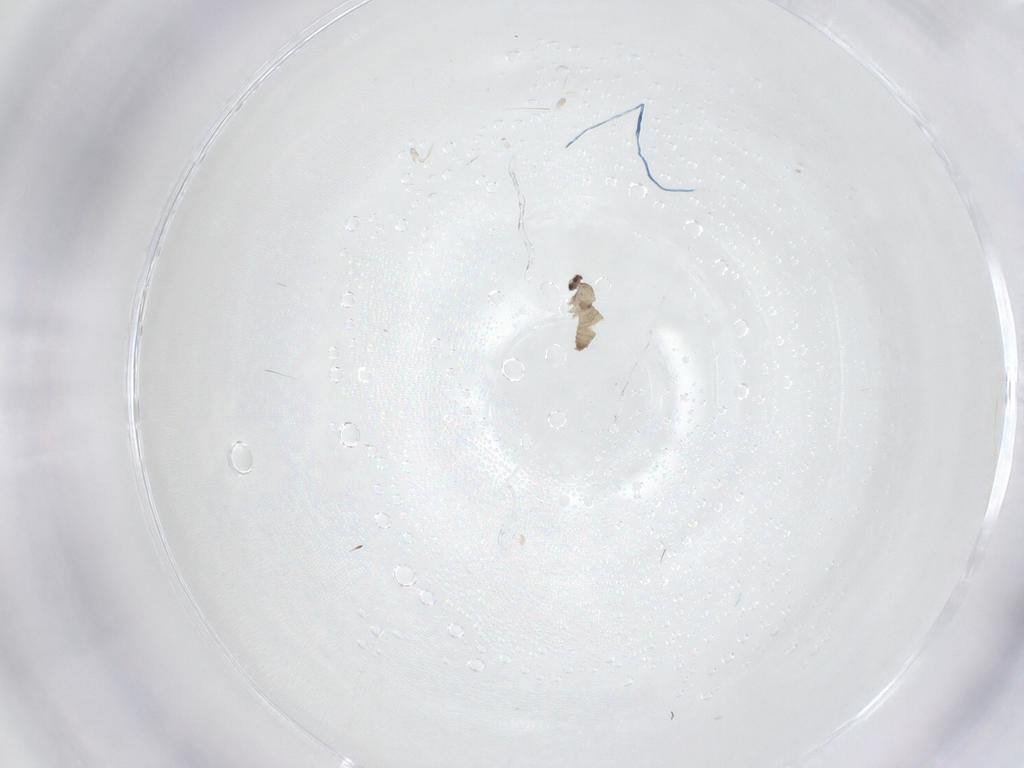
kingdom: Animalia
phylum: Arthropoda
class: Insecta
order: Diptera
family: Cecidomyiidae
